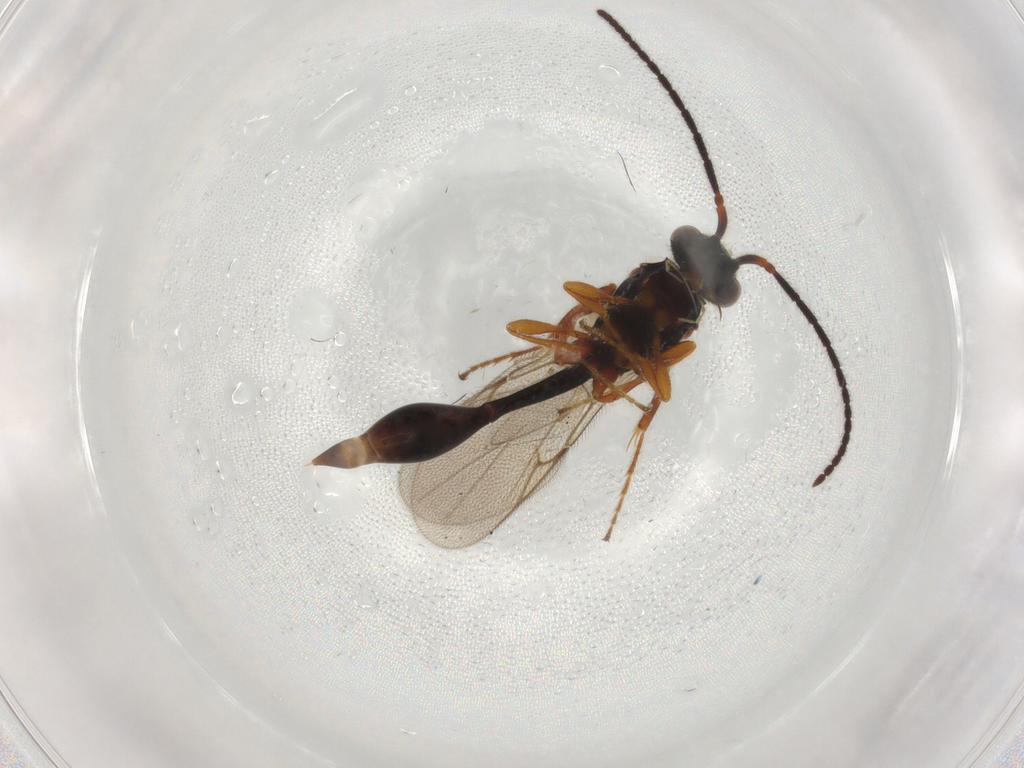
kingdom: Animalia
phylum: Arthropoda
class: Insecta
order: Hymenoptera
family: Diapriidae
